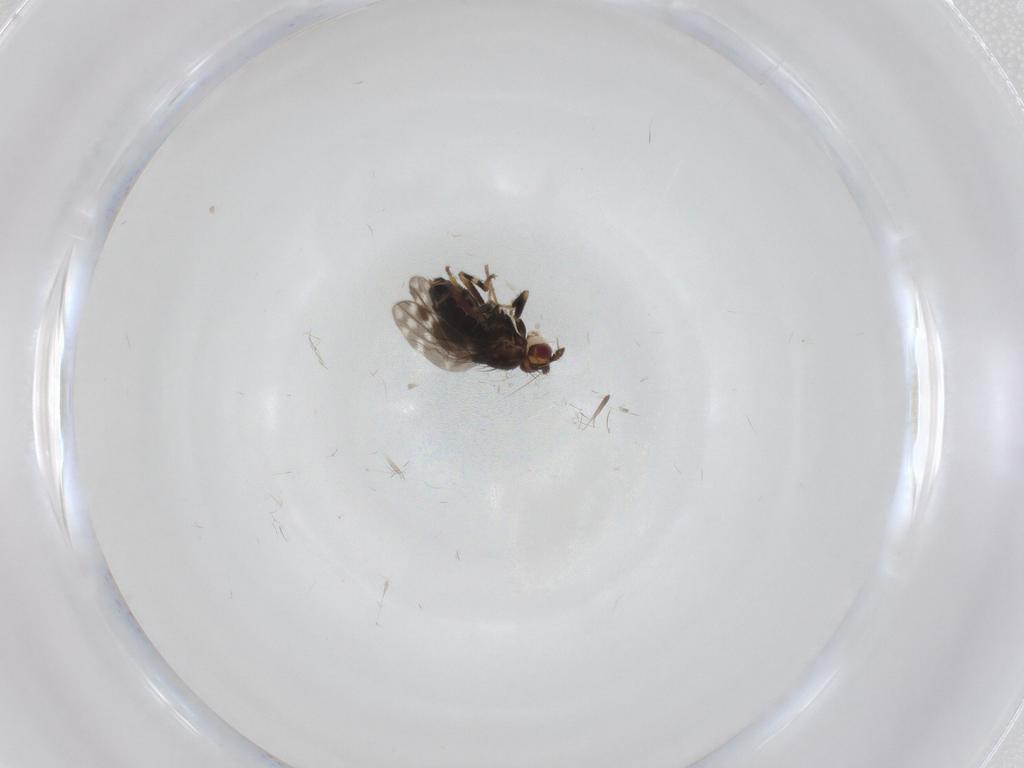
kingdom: Animalia
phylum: Arthropoda
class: Insecta
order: Diptera
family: Sphaeroceridae
